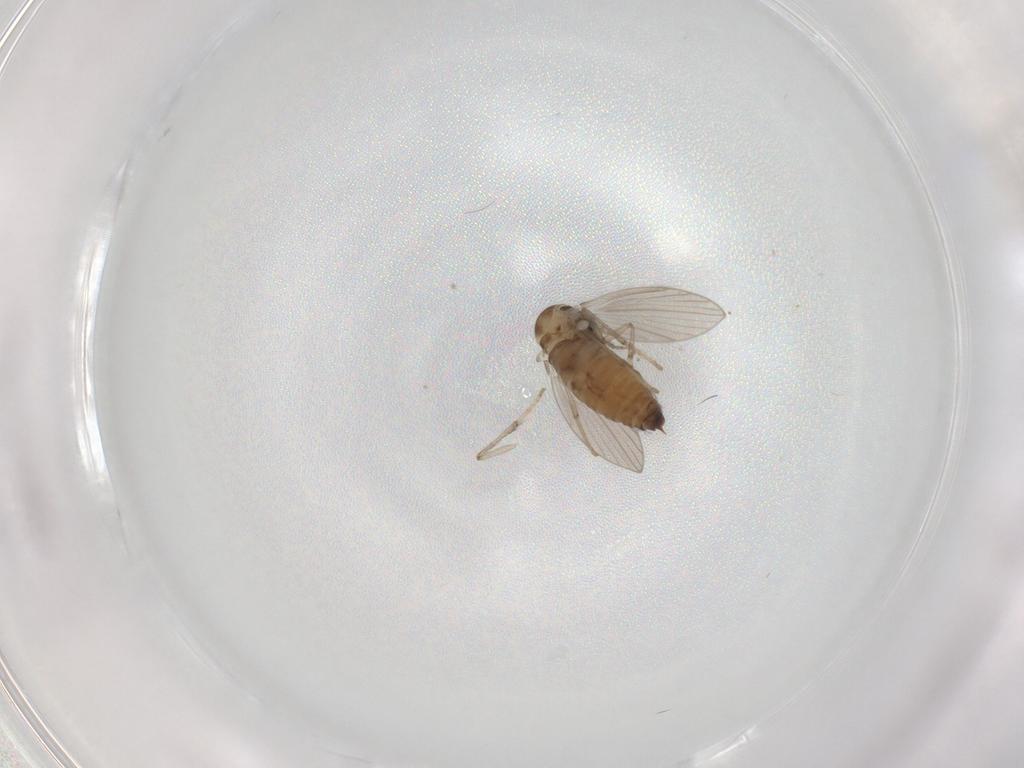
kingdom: Animalia
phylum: Arthropoda
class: Insecta
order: Diptera
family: Psychodidae
